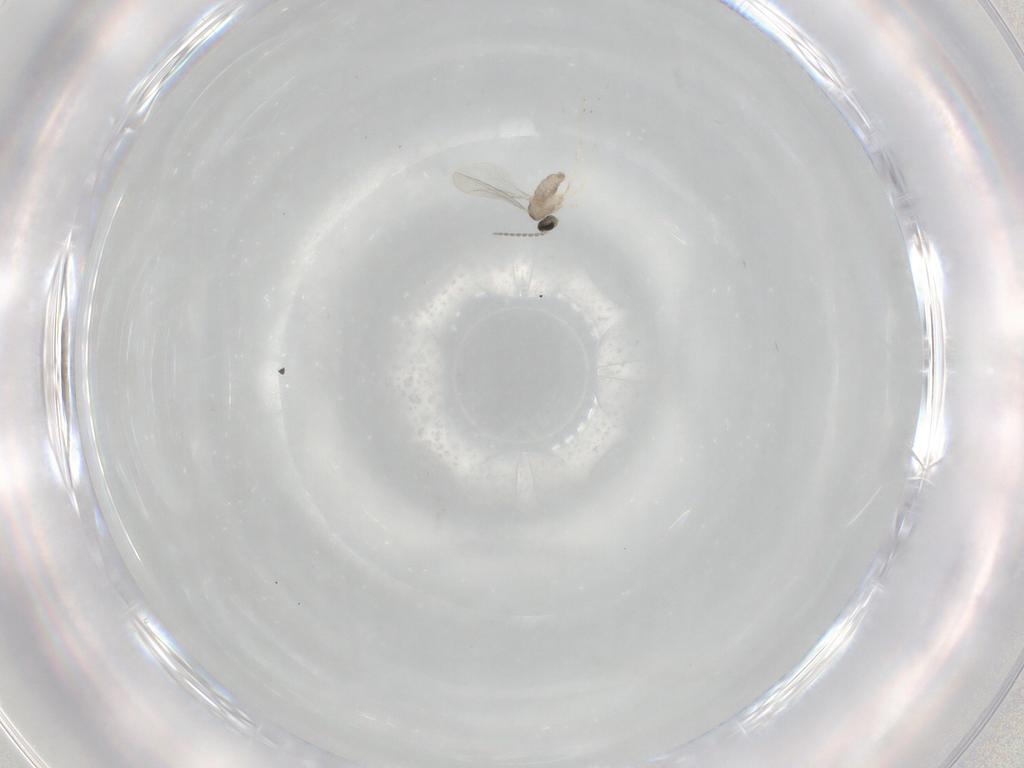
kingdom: Animalia
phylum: Arthropoda
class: Insecta
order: Diptera
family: Cecidomyiidae
